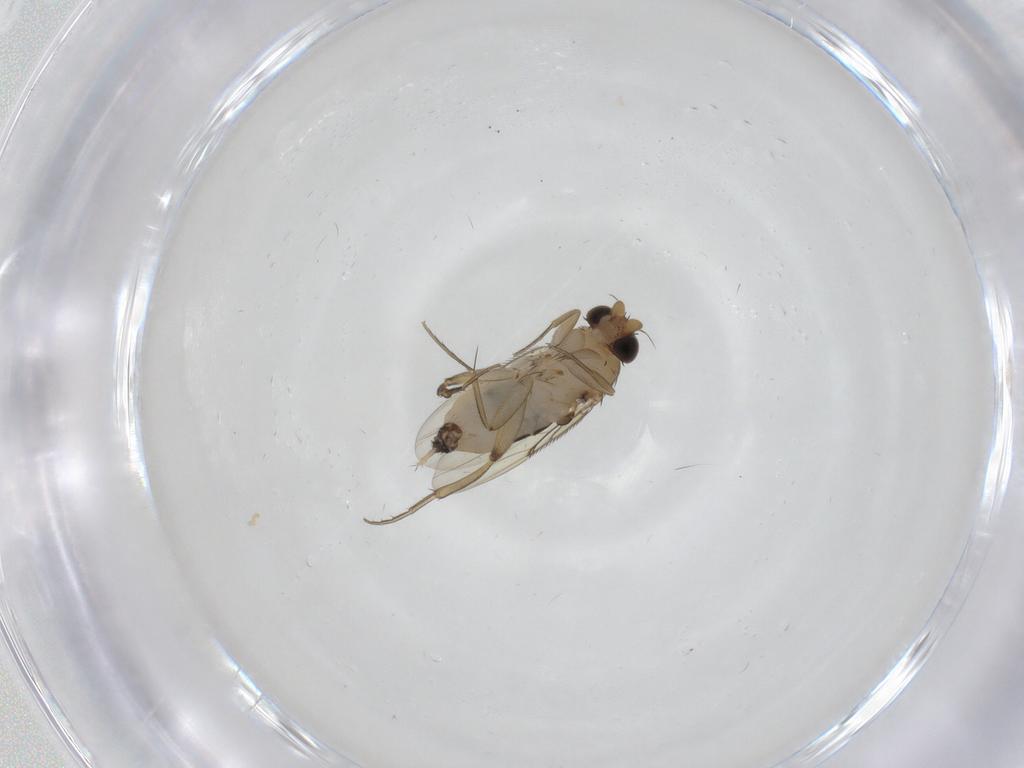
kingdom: Animalia
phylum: Arthropoda
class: Insecta
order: Diptera
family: Phoridae
